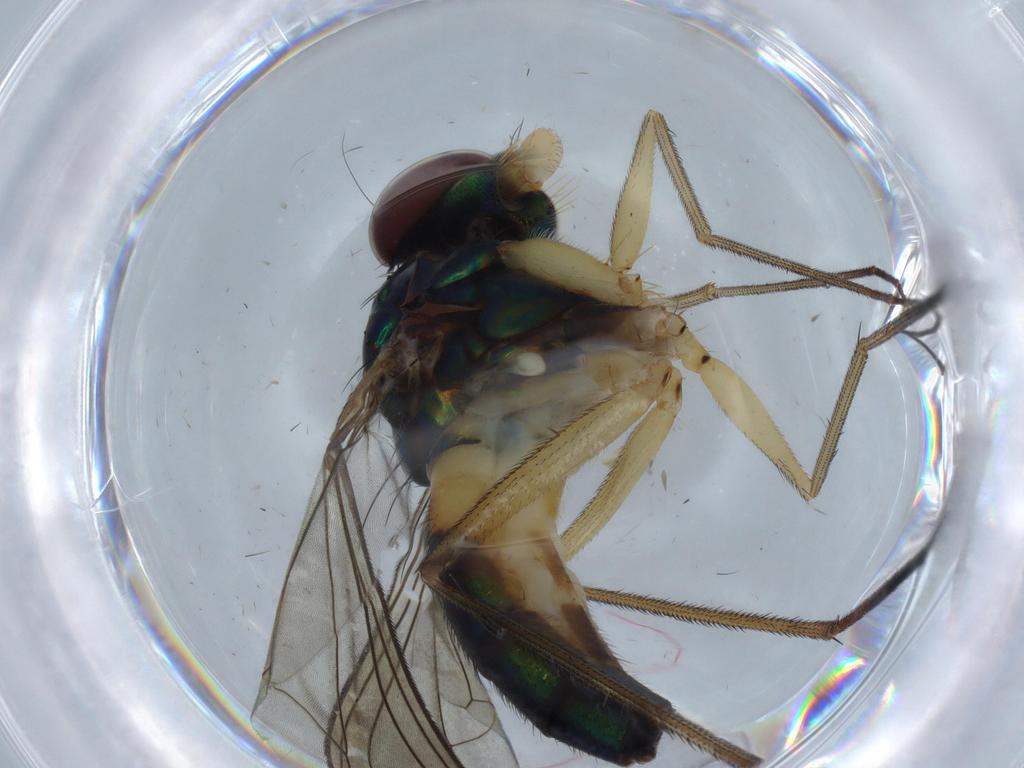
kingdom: Animalia
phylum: Arthropoda
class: Insecta
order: Diptera
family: Dolichopodidae
